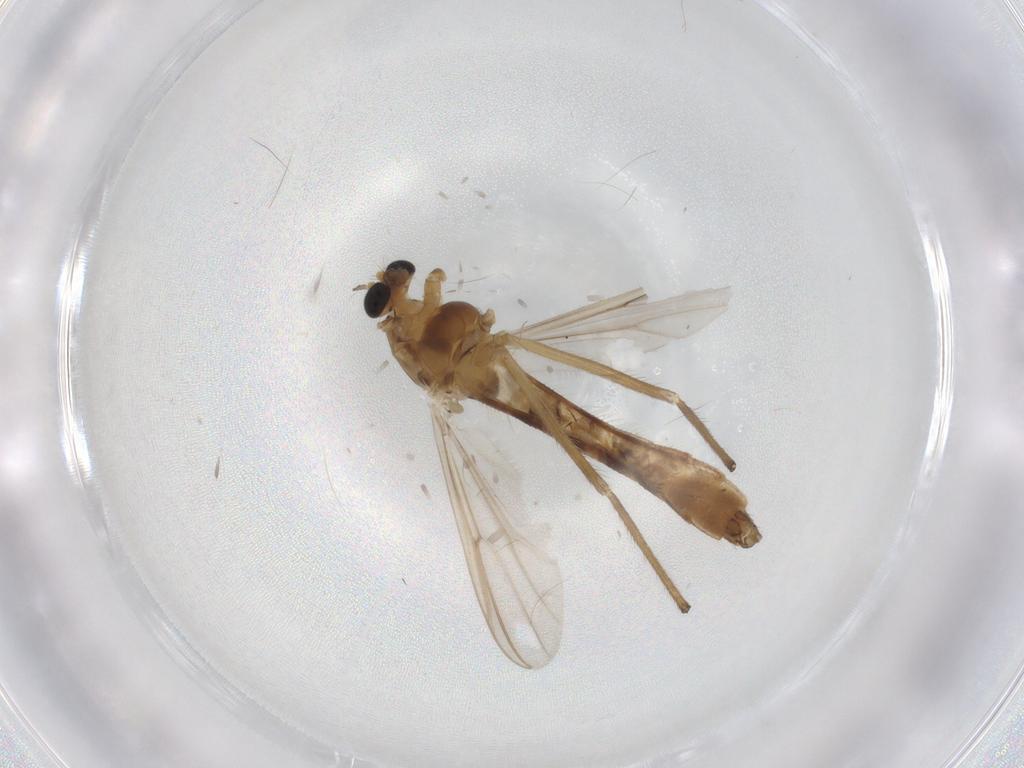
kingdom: Animalia
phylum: Arthropoda
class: Insecta
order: Diptera
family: Chironomidae
